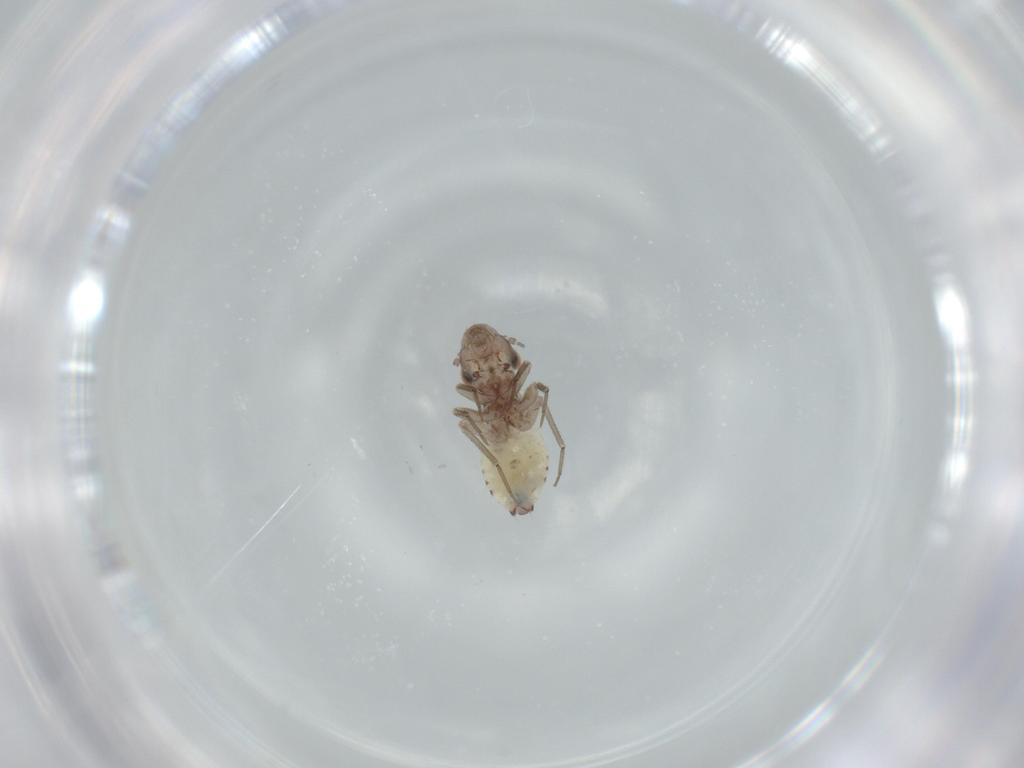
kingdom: Animalia
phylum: Arthropoda
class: Insecta
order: Psocodea
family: Lepidopsocidae
